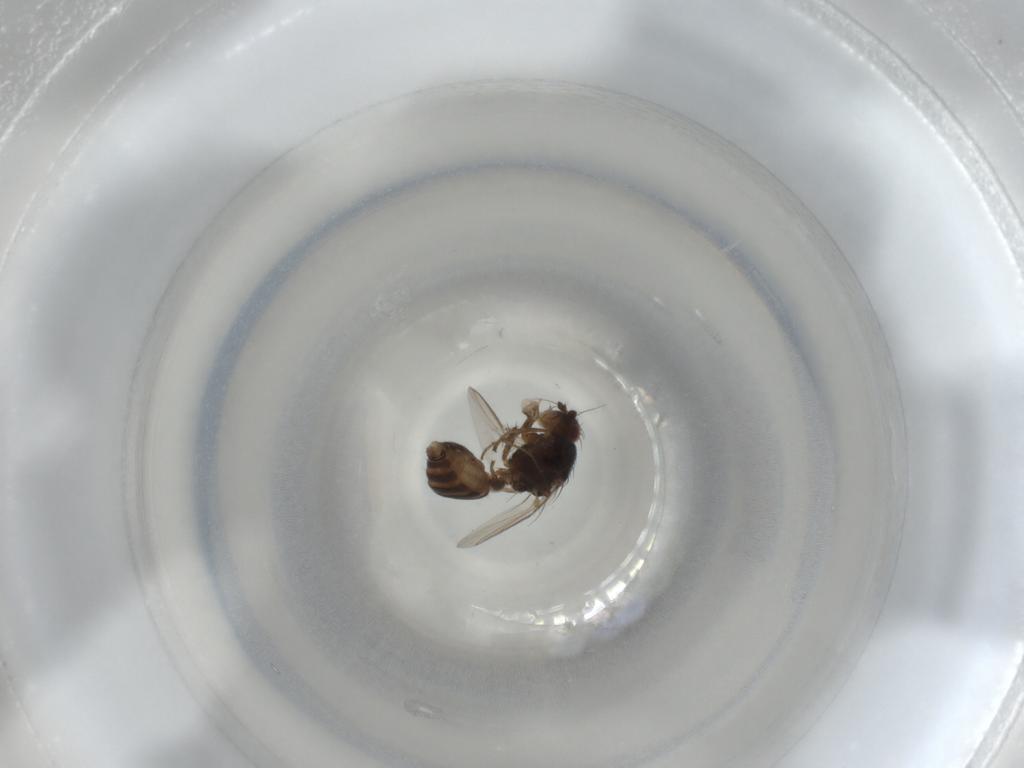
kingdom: Animalia
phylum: Arthropoda
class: Insecta
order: Diptera
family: Sphaeroceridae
